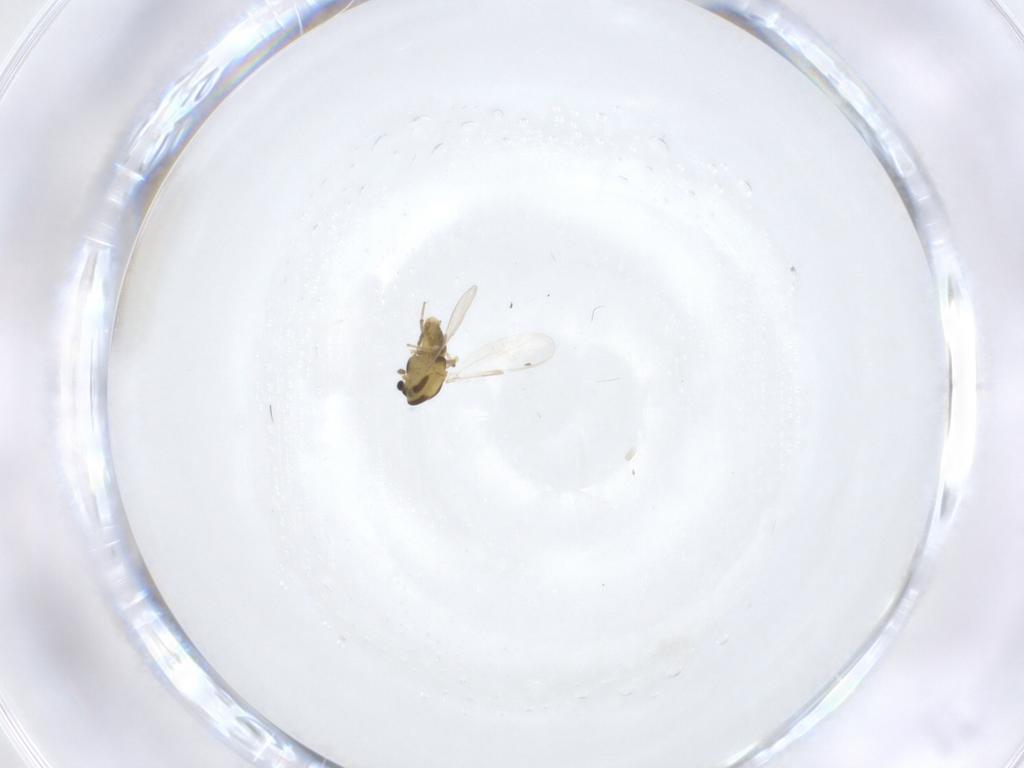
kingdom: Animalia
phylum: Arthropoda
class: Insecta
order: Diptera
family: Chironomidae
